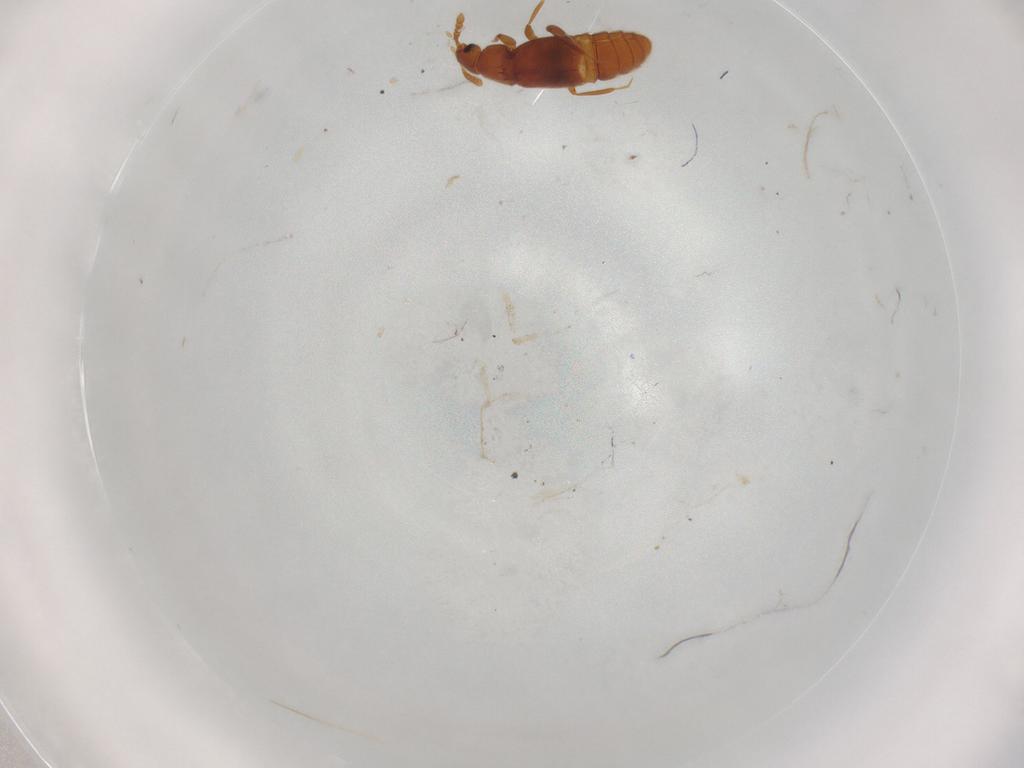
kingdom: Animalia
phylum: Arthropoda
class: Insecta
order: Coleoptera
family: Staphylinidae
